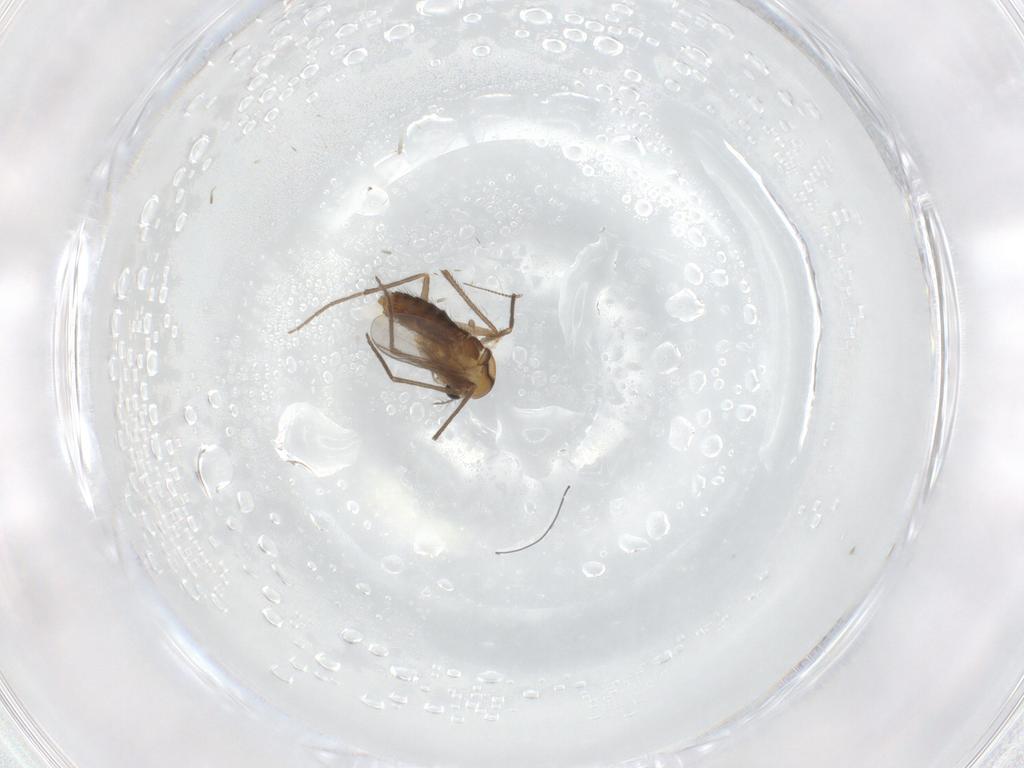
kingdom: Animalia
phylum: Arthropoda
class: Insecta
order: Diptera
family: Chironomidae
